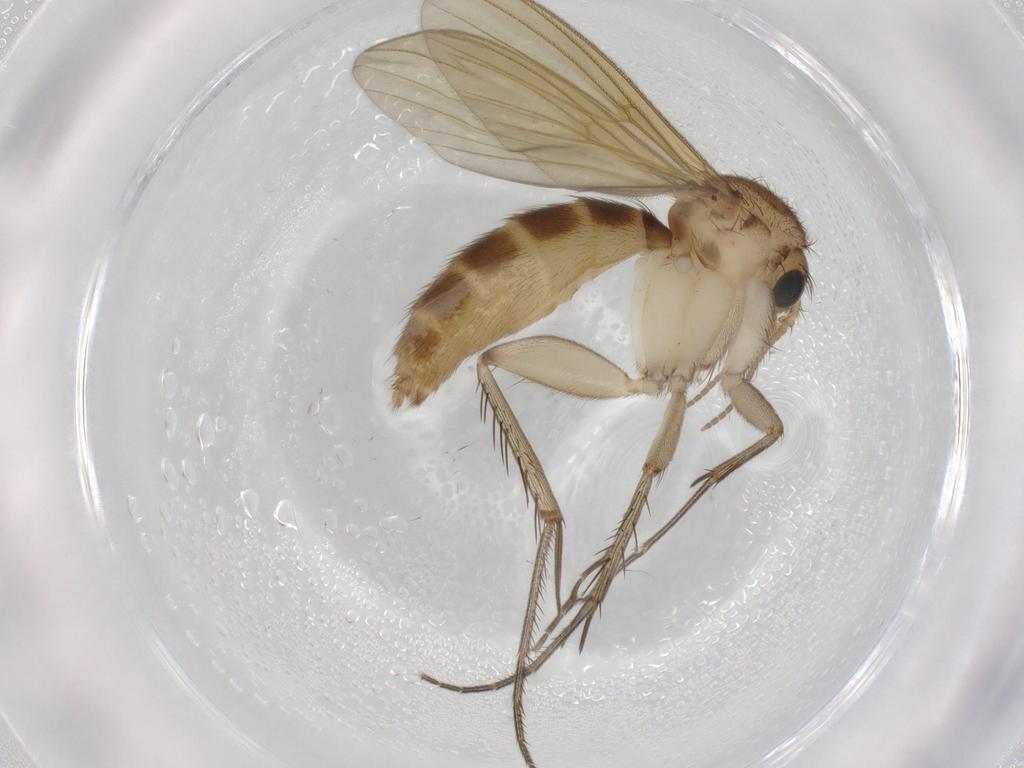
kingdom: Animalia
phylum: Arthropoda
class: Insecta
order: Diptera
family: Mycetophilidae
